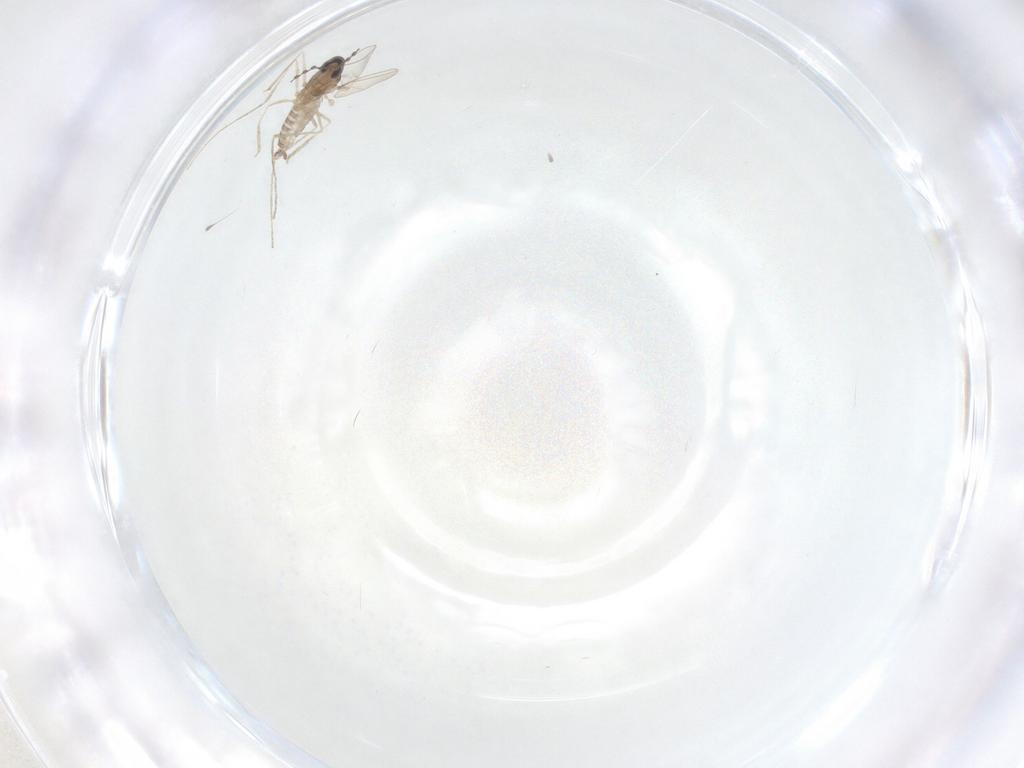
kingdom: Animalia
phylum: Arthropoda
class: Insecta
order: Diptera
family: Cecidomyiidae
